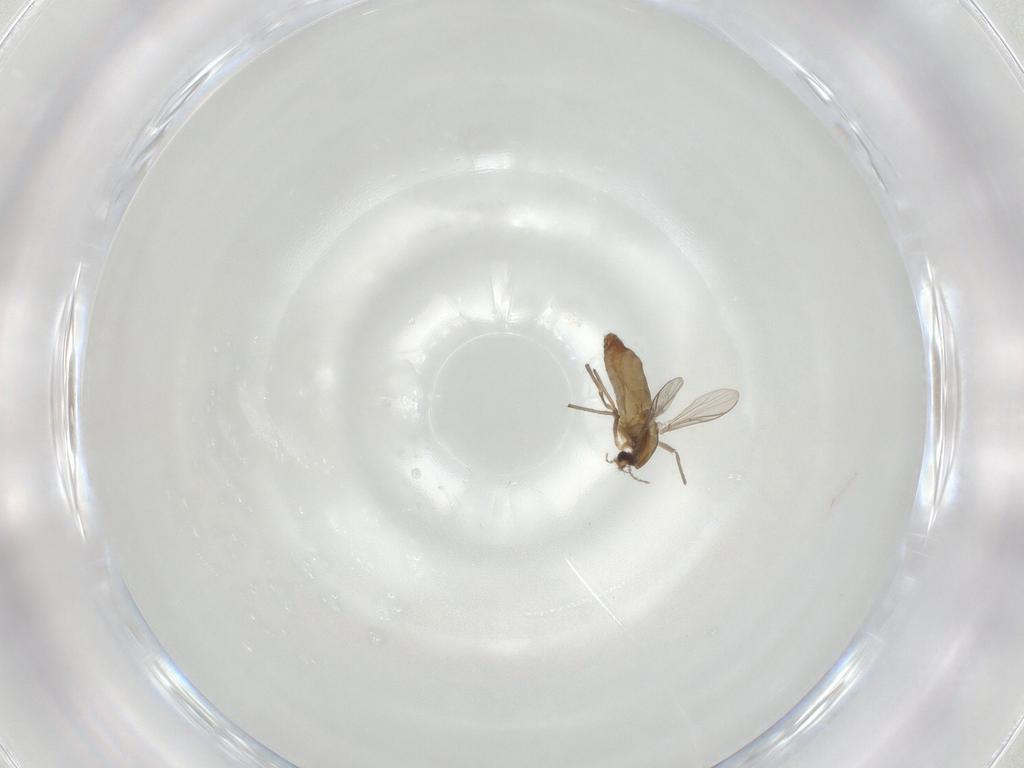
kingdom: Animalia
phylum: Arthropoda
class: Insecta
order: Diptera
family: Chironomidae
